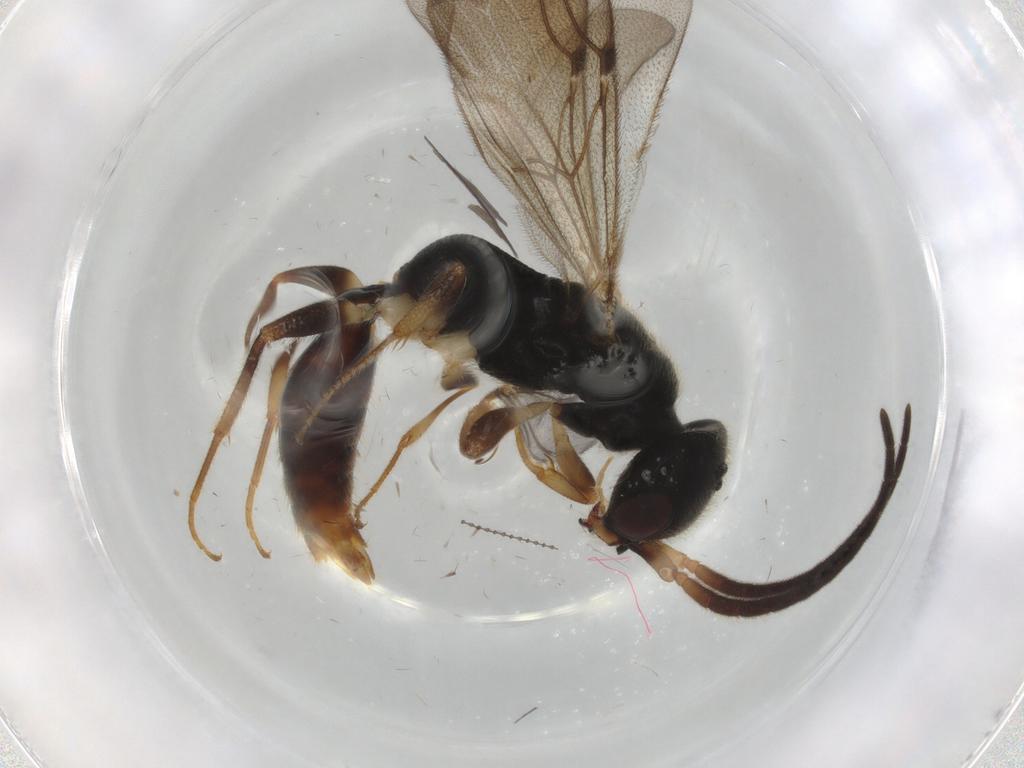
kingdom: Animalia
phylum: Arthropoda
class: Insecta
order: Hymenoptera
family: Bethylidae
